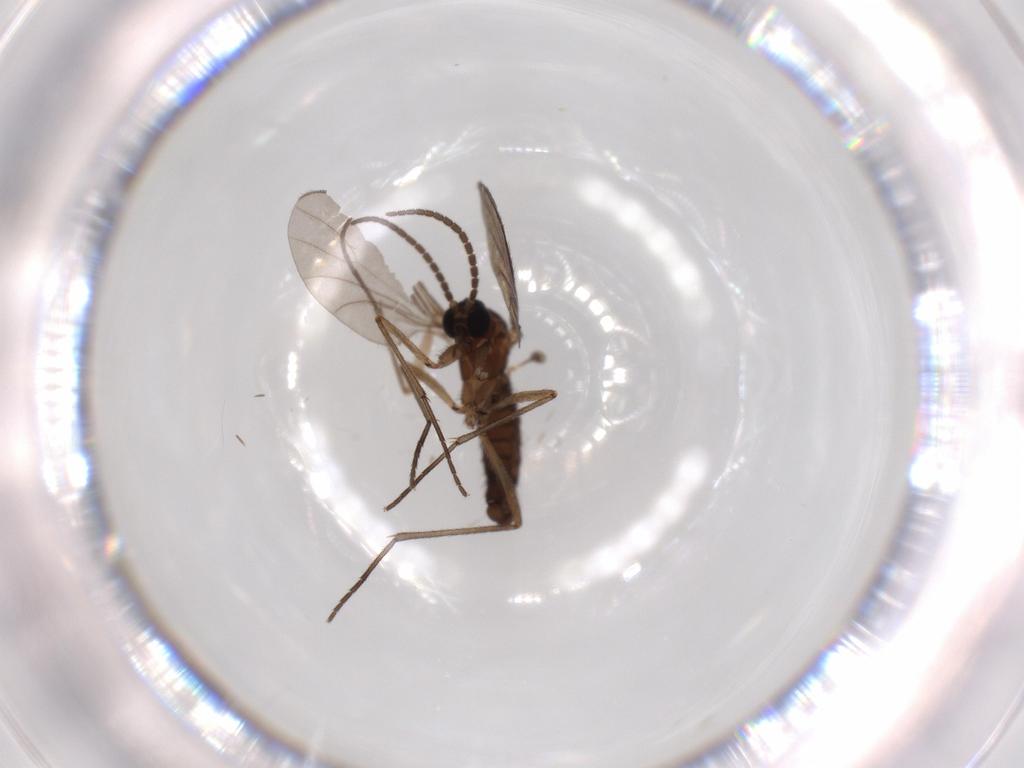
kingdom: Animalia
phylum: Arthropoda
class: Insecta
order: Diptera
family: Sciaridae
